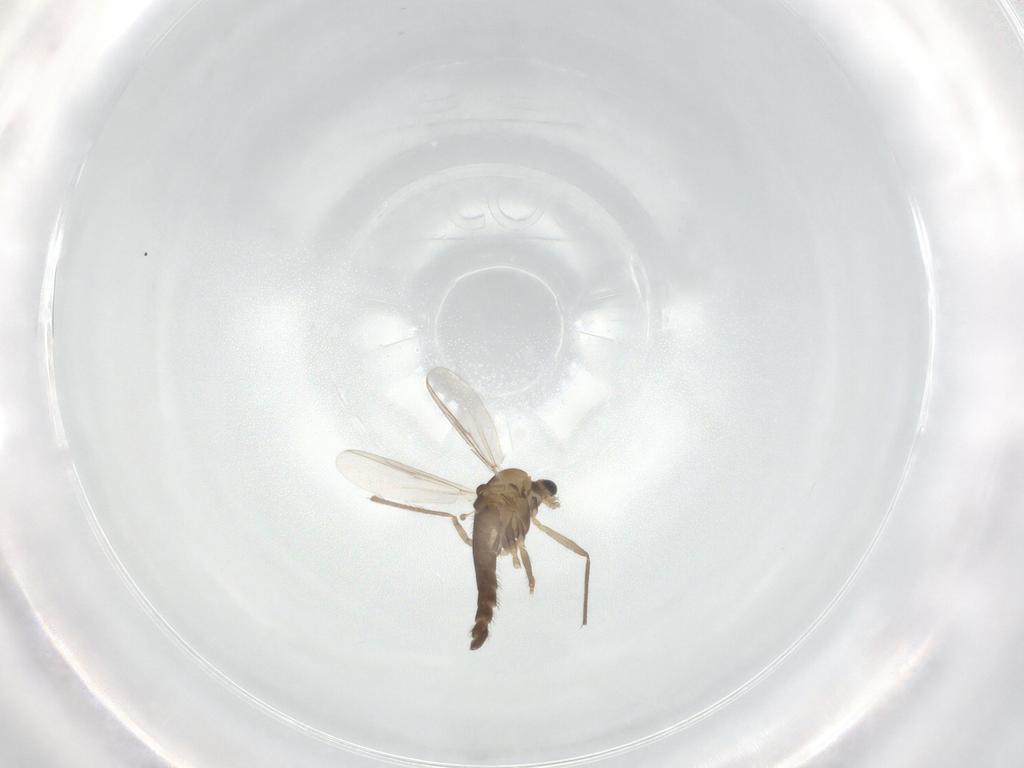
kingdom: Animalia
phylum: Arthropoda
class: Insecta
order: Diptera
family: Chironomidae
